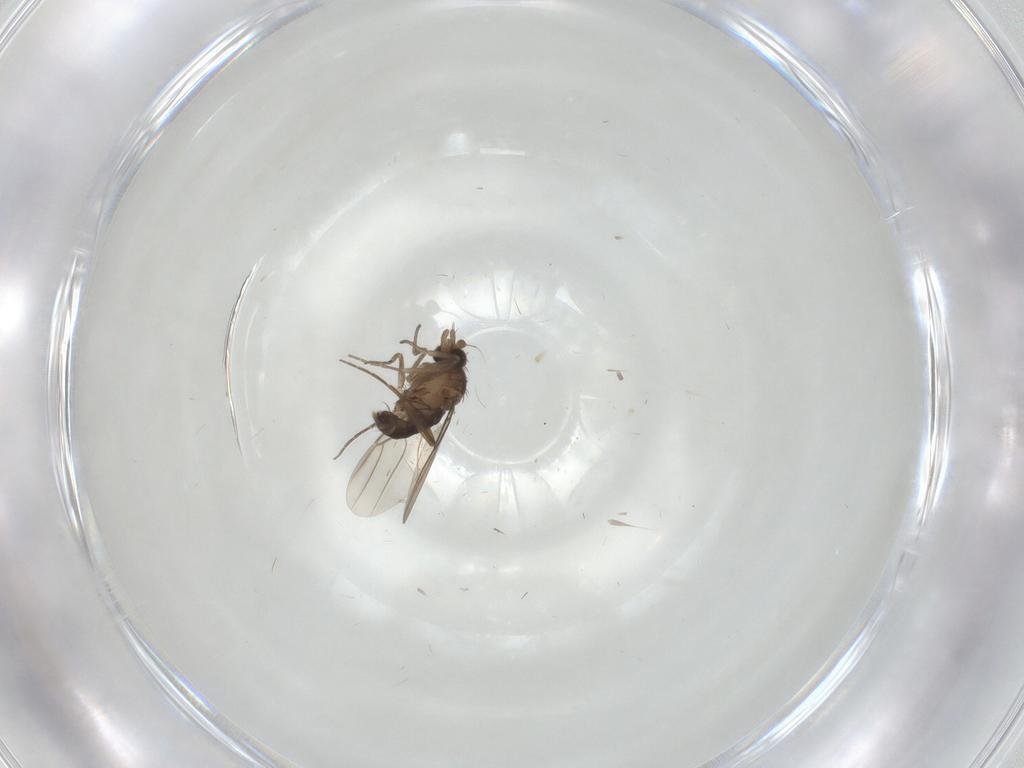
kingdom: Animalia
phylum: Arthropoda
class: Insecta
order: Diptera
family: Phoridae
